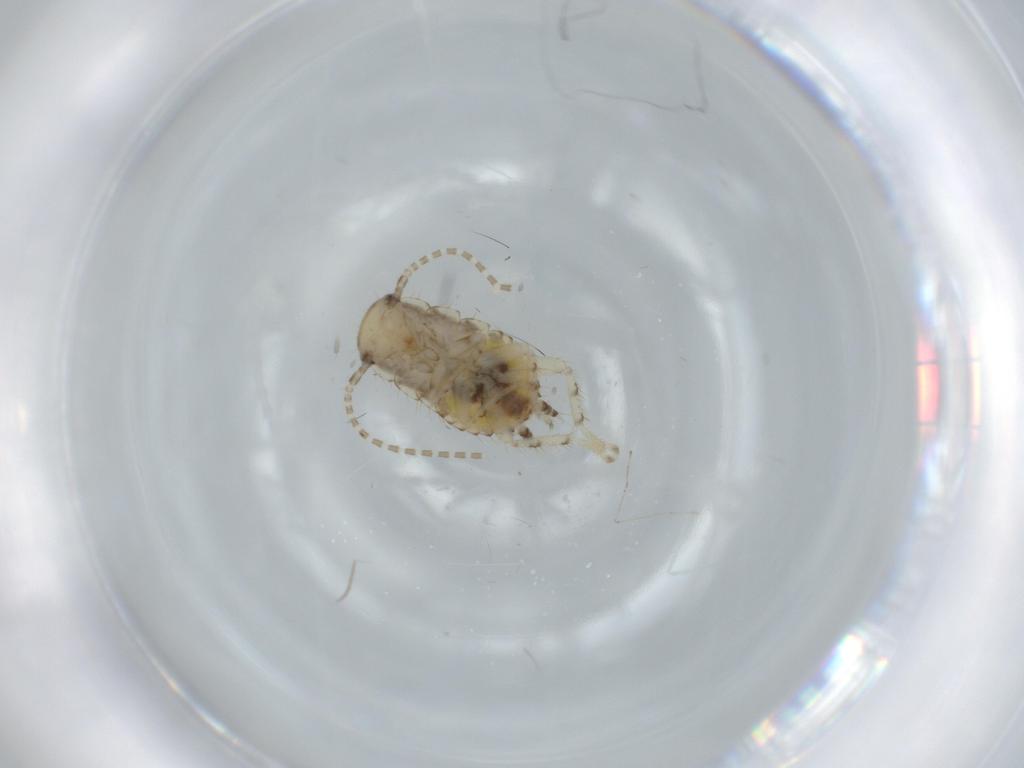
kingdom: Animalia
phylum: Arthropoda
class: Insecta
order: Blattodea
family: Ectobiidae
